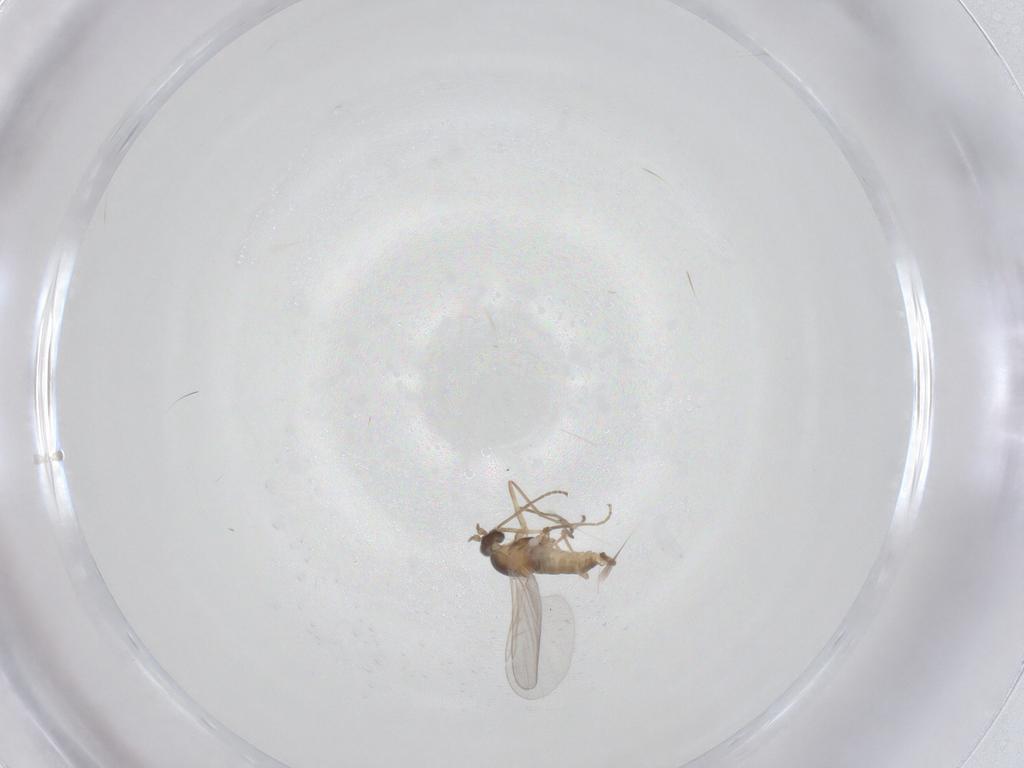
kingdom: Animalia
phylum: Arthropoda
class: Insecta
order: Diptera
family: Cecidomyiidae
